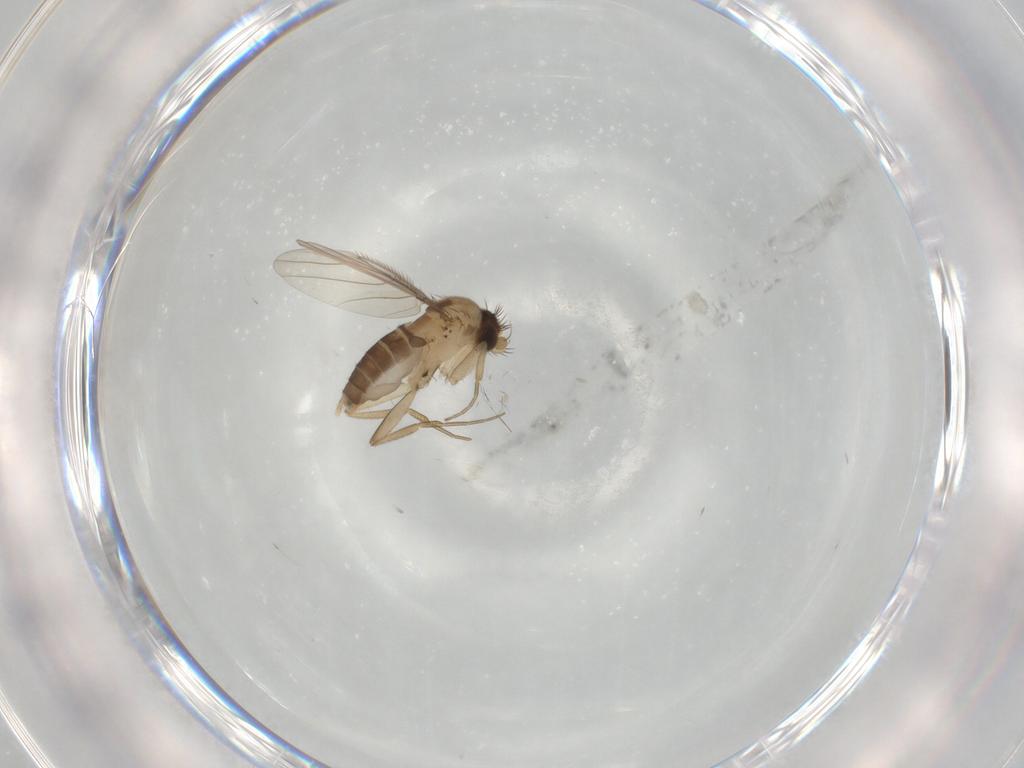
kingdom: Animalia
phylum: Arthropoda
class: Insecta
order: Diptera
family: Phoridae
